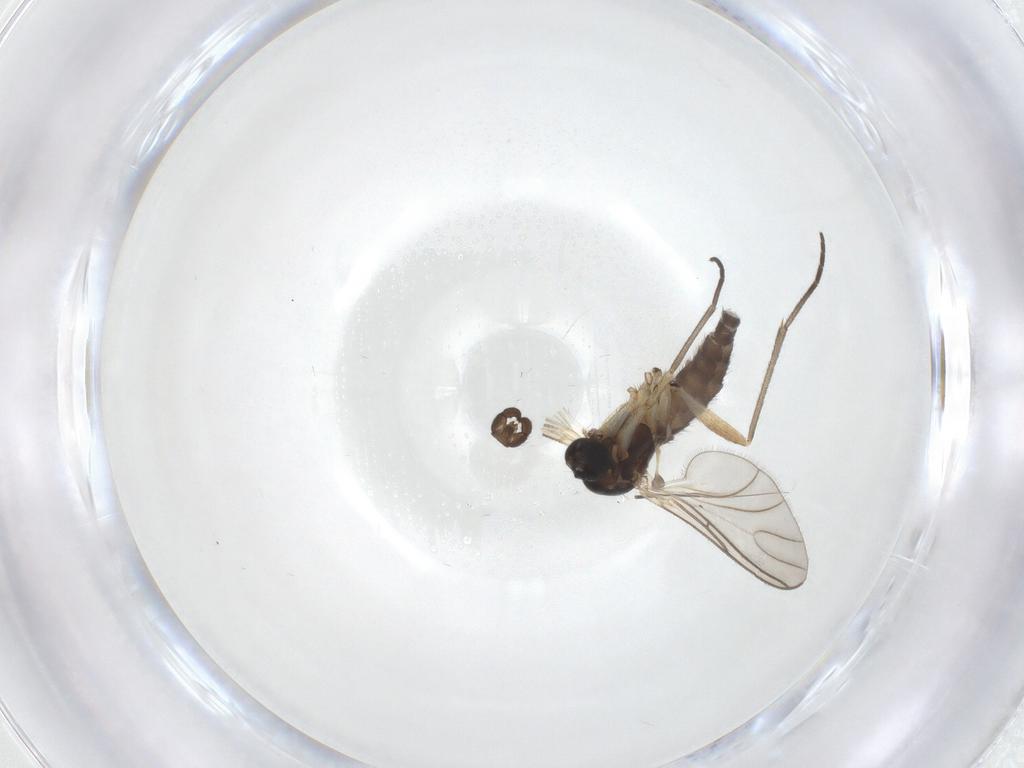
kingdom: Animalia
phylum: Arthropoda
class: Insecta
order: Diptera
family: Sciaridae
